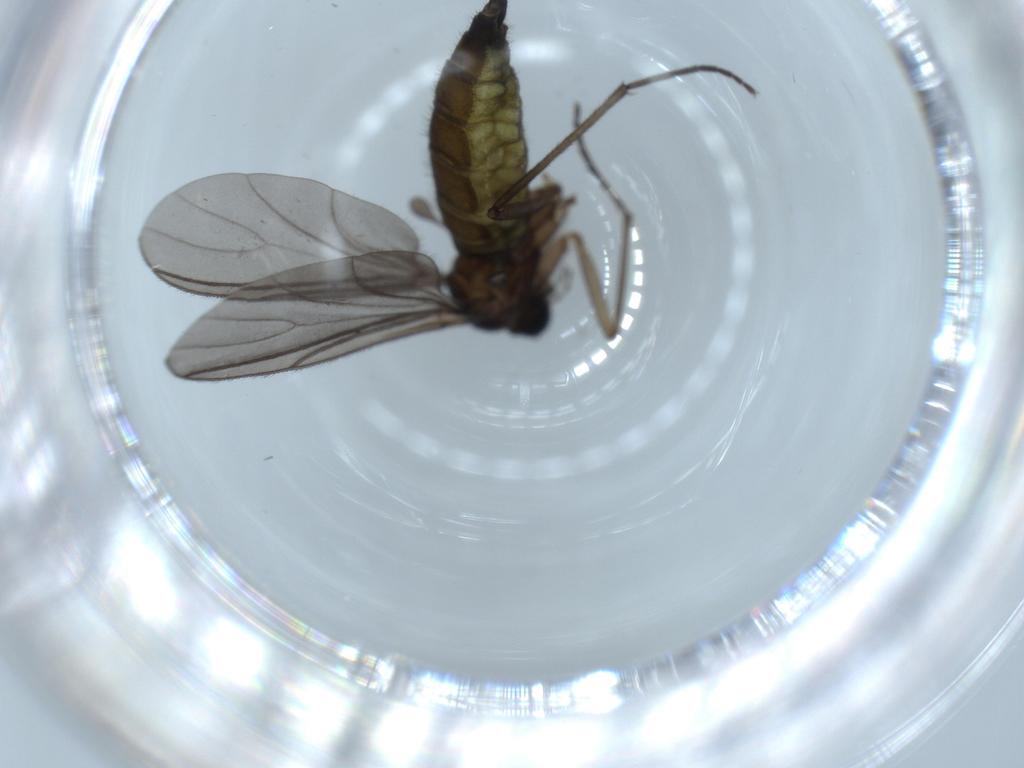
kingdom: Animalia
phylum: Arthropoda
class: Insecta
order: Diptera
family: Sciaridae
